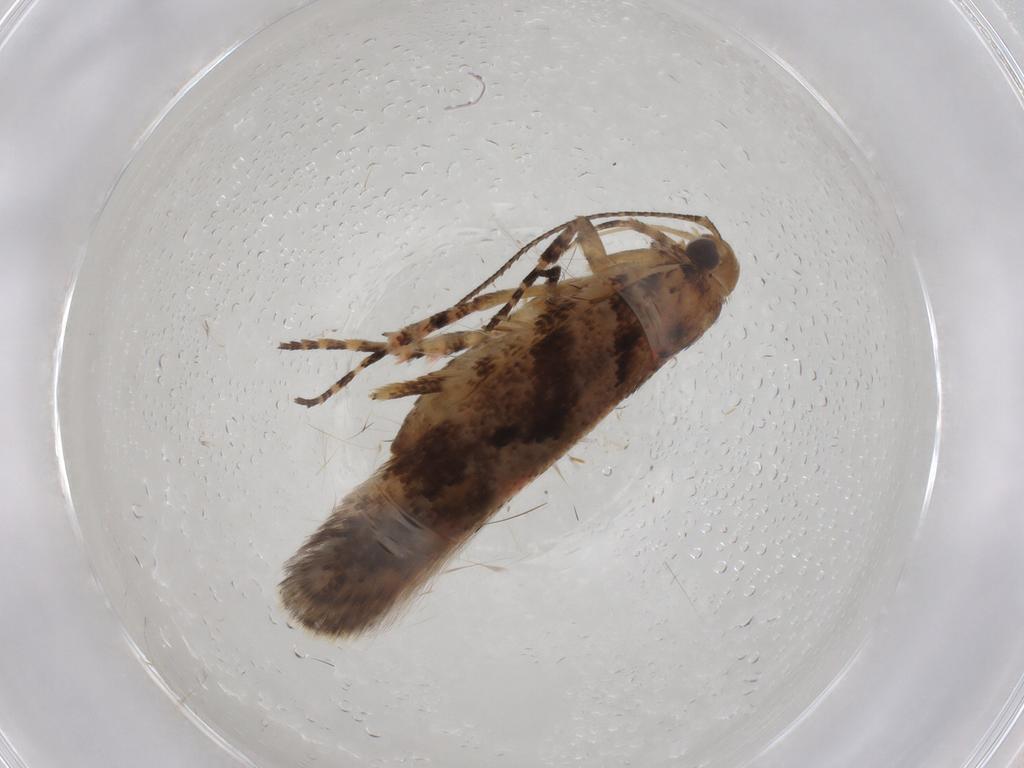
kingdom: Animalia
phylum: Arthropoda
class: Insecta
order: Lepidoptera
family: Gelechiidae
